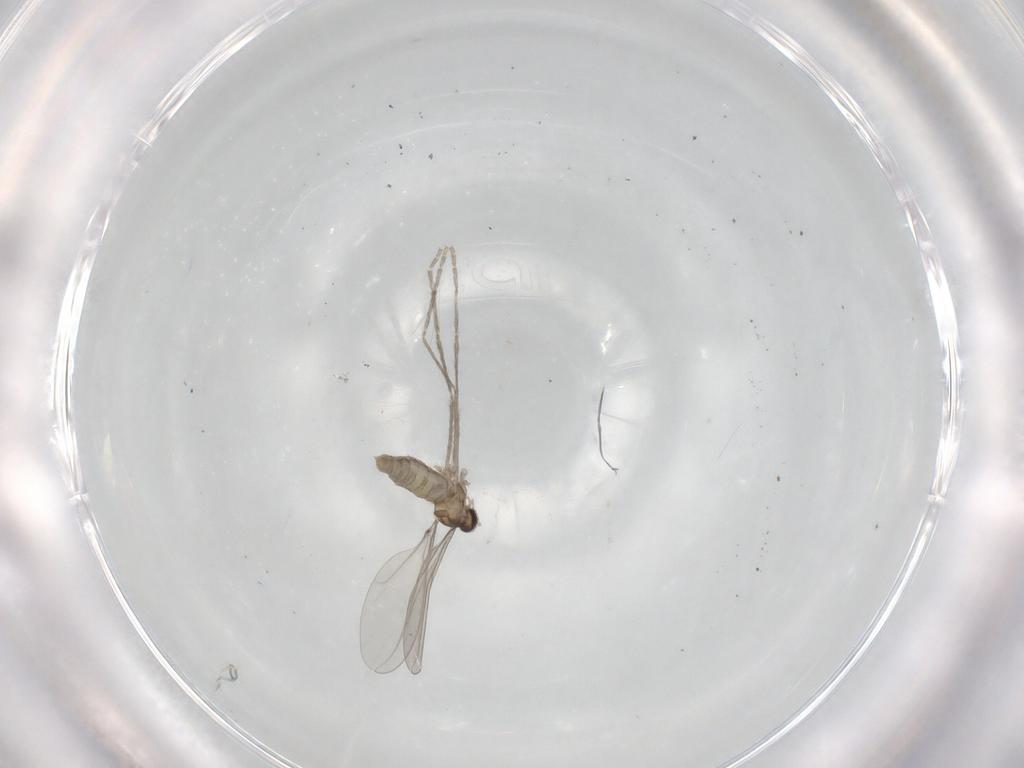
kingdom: Animalia
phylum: Arthropoda
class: Insecta
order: Diptera
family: Cecidomyiidae
